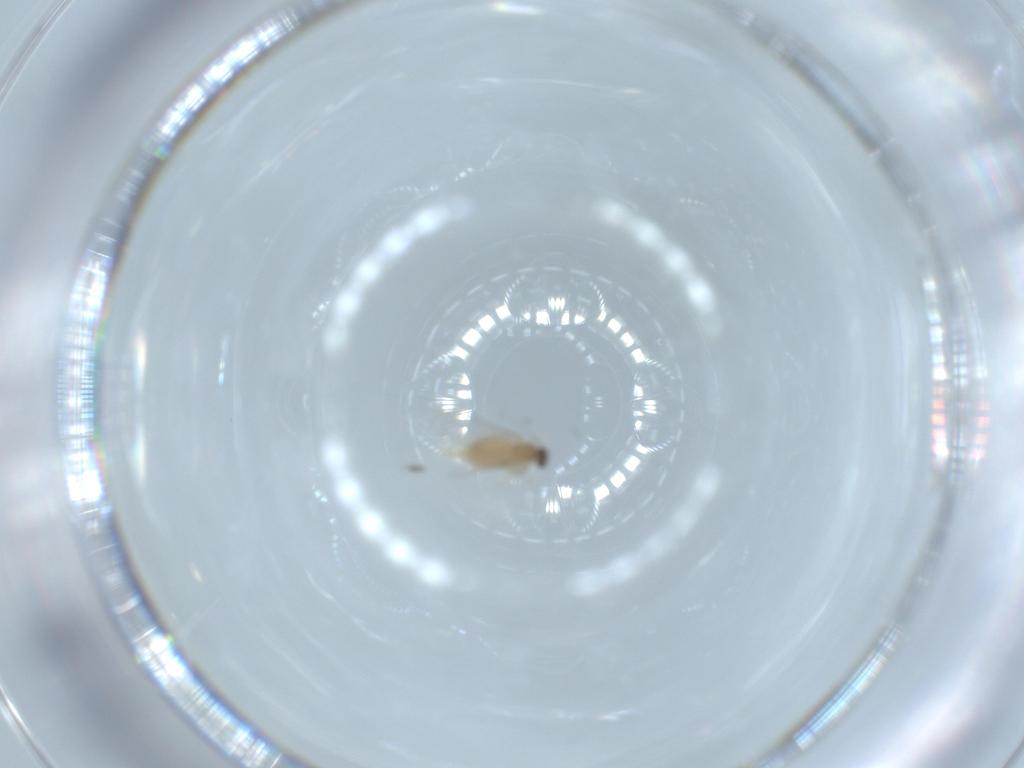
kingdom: Animalia
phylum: Arthropoda
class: Insecta
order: Diptera
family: Cecidomyiidae
